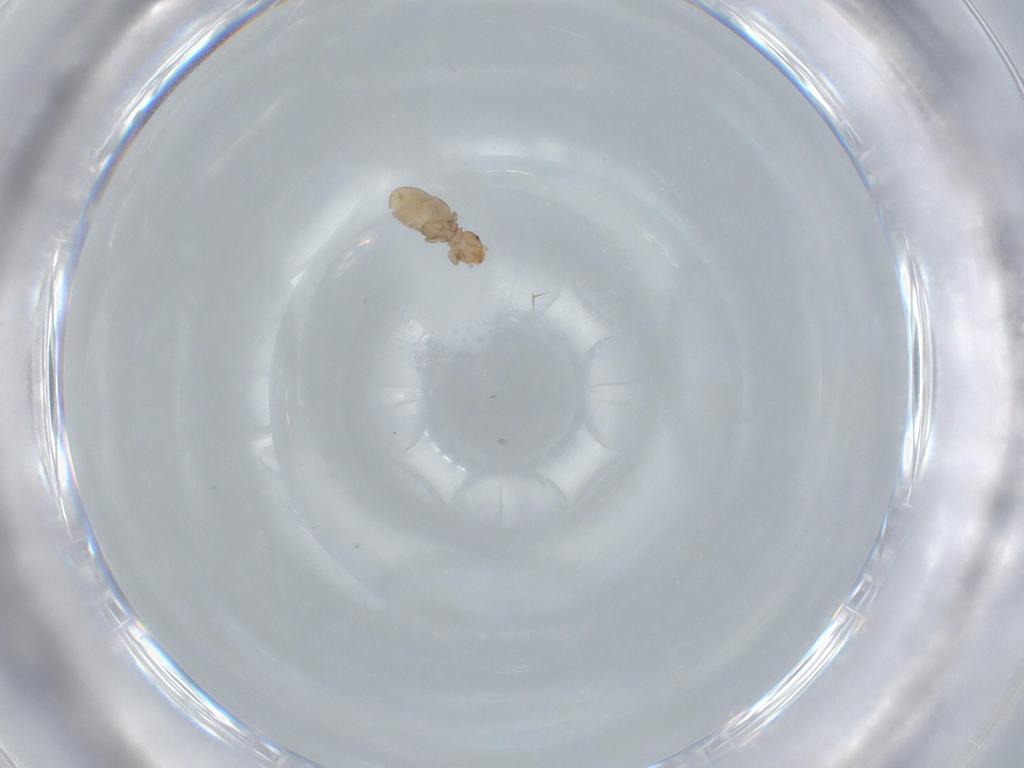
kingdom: Animalia
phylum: Arthropoda
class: Insecta
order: Psocodea
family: Liposcelididae
